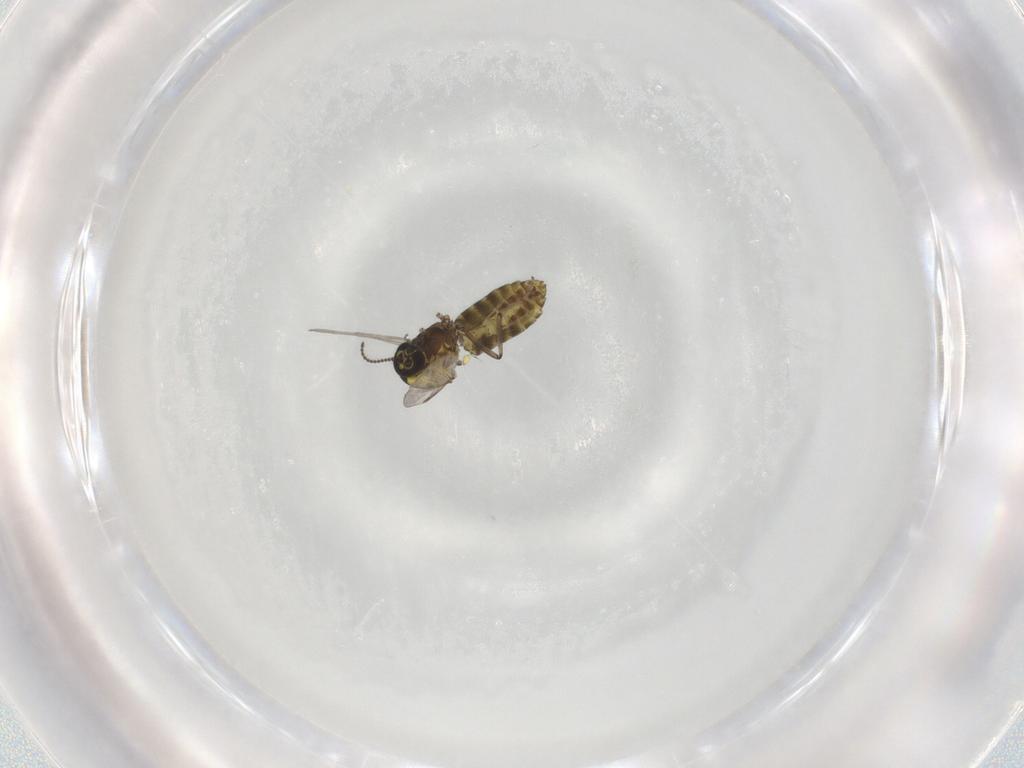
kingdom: Animalia
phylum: Arthropoda
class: Insecta
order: Diptera
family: Ceratopogonidae
